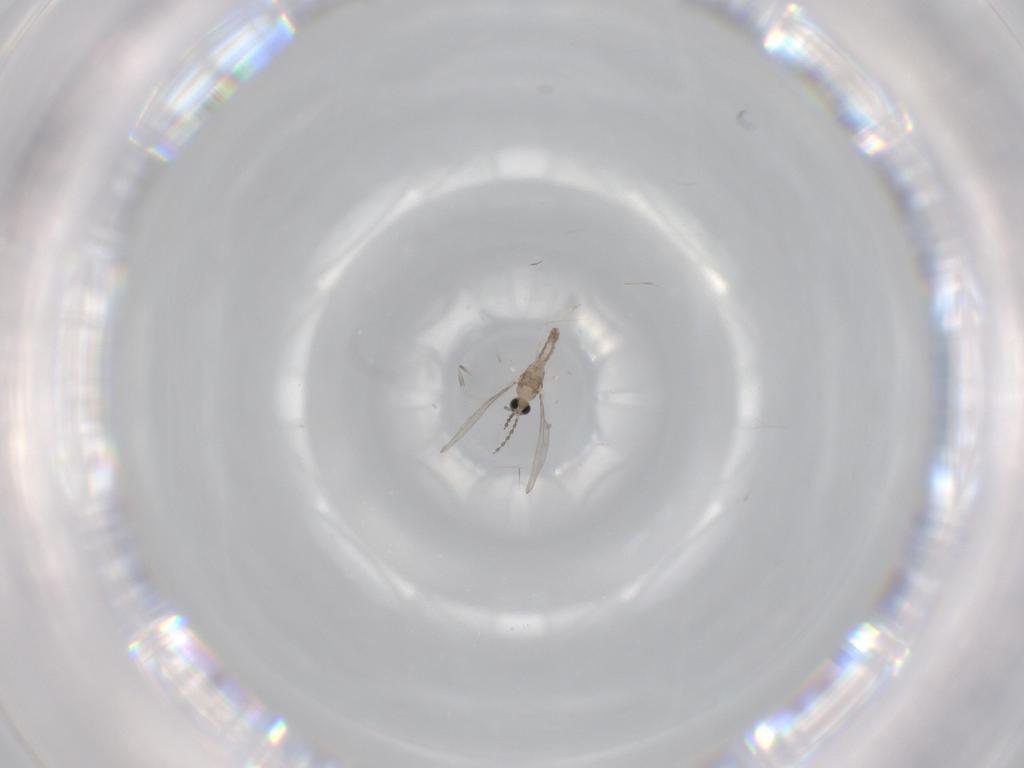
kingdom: Animalia
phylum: Arthropoda
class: Insecta
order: Diptera
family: Cecidomyiidae
